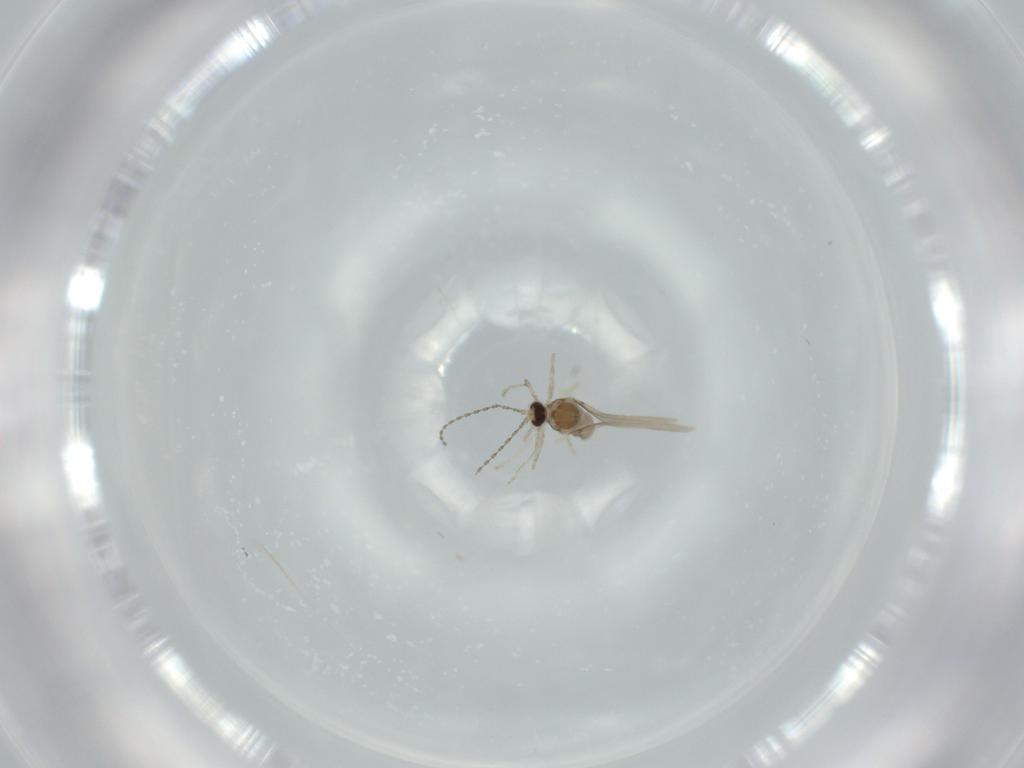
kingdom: Animalia
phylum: Arthropoda
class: Insecta
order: Diptera
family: Cecidomyiidae
